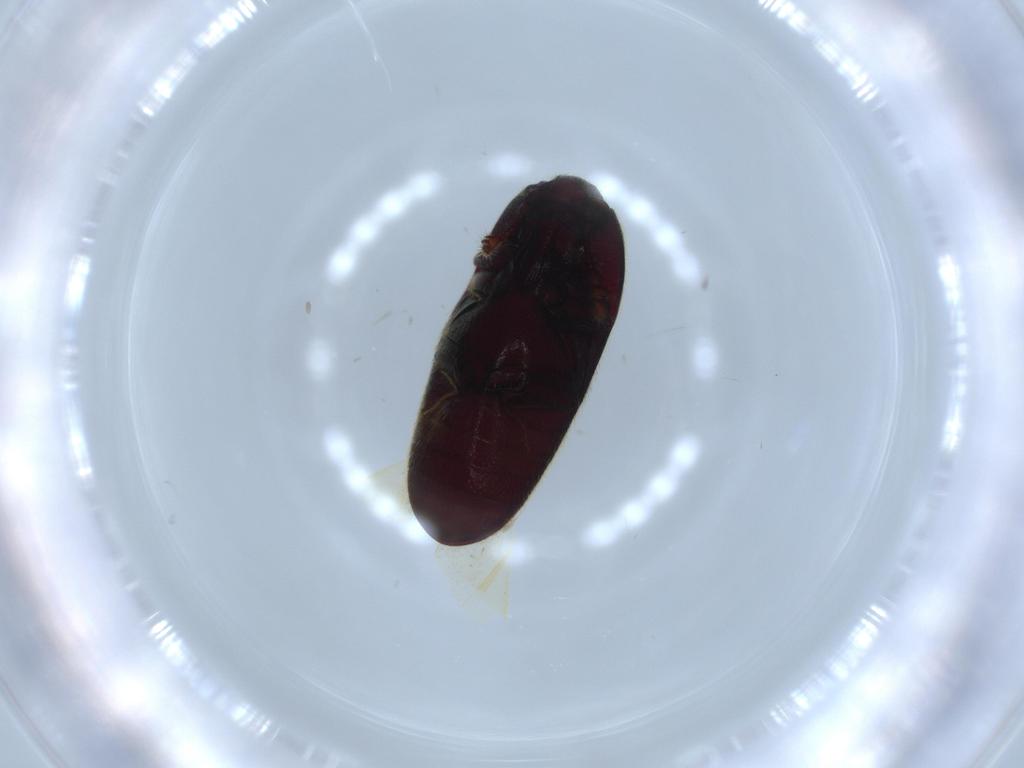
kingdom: Animalia
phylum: Arthropoda
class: Insecta
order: Coleoptera
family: Throscidae
